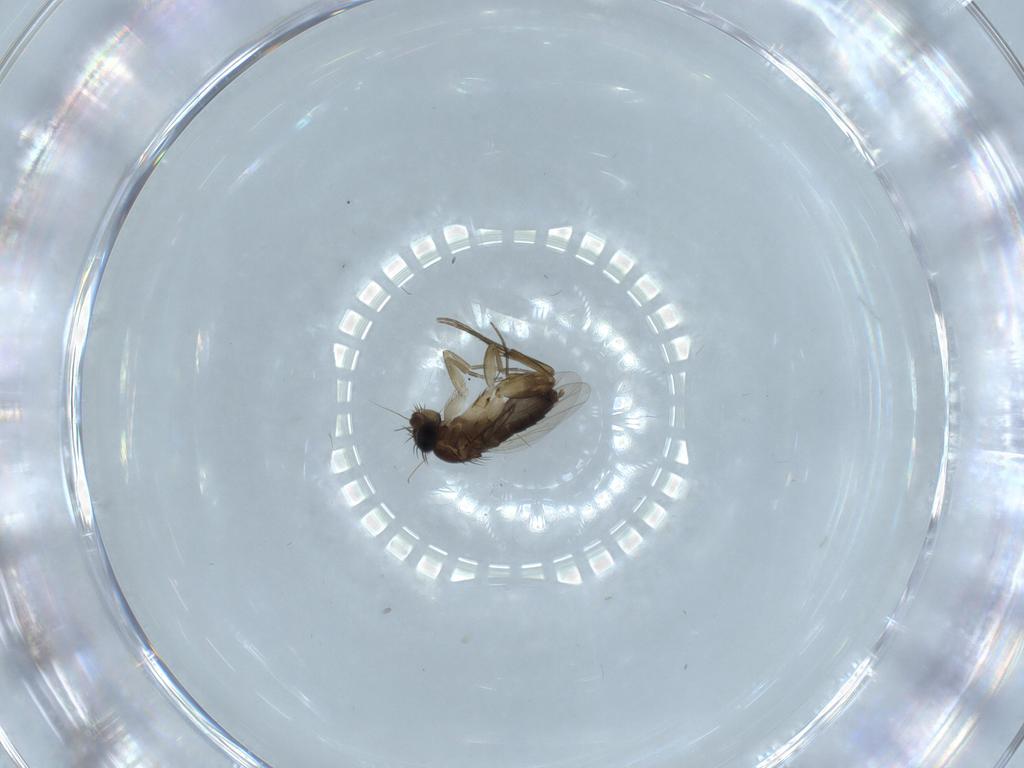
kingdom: Animalia
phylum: Arthropoda
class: Insecta
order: Diptera
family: Phoridae
